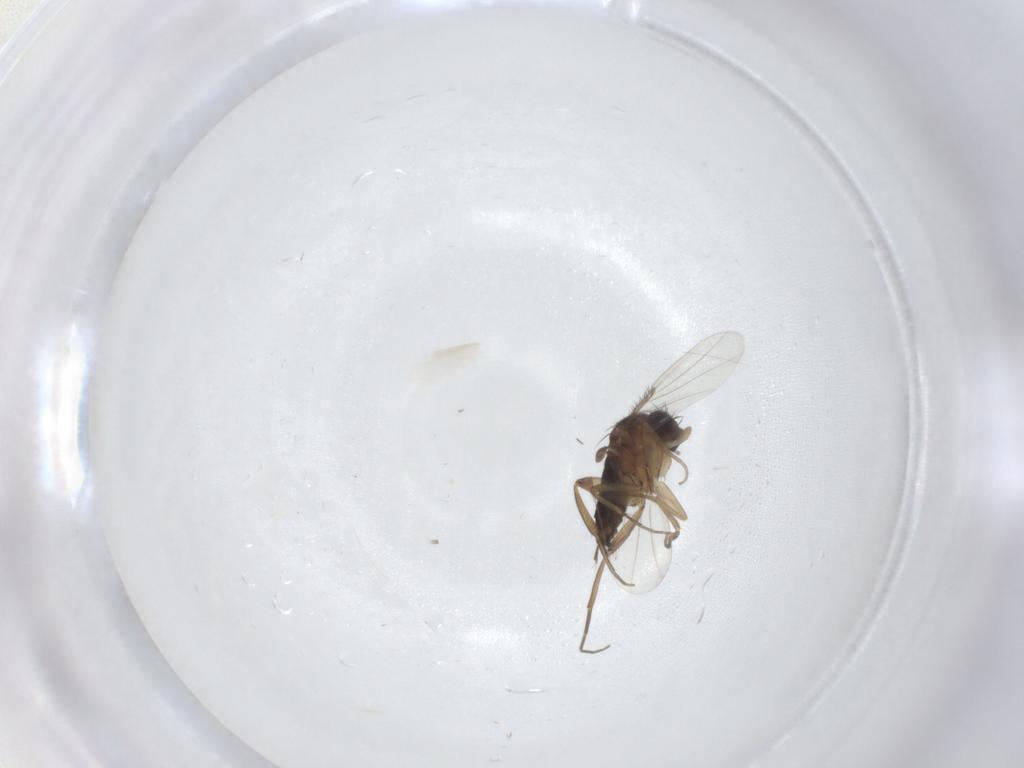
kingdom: Animalia
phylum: Arthropoda
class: Insecta
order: Diptera
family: Phoridae
